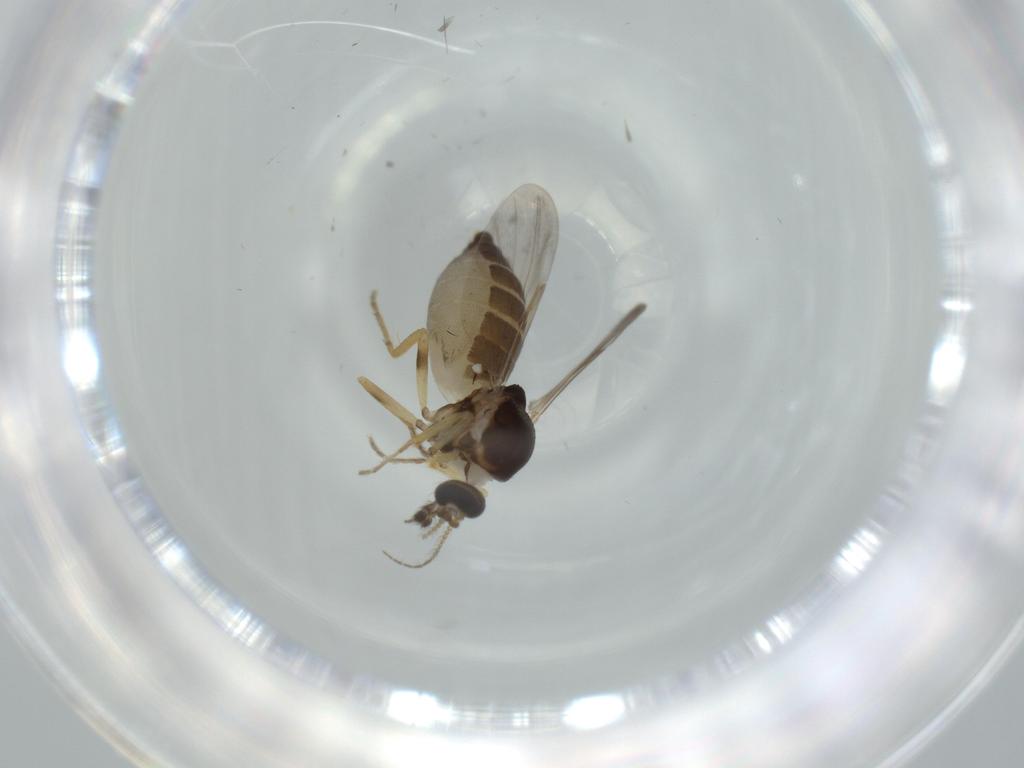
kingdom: Animalia
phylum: Arthropoda
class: Insecta
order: Diptera
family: Ceratopogonidae
